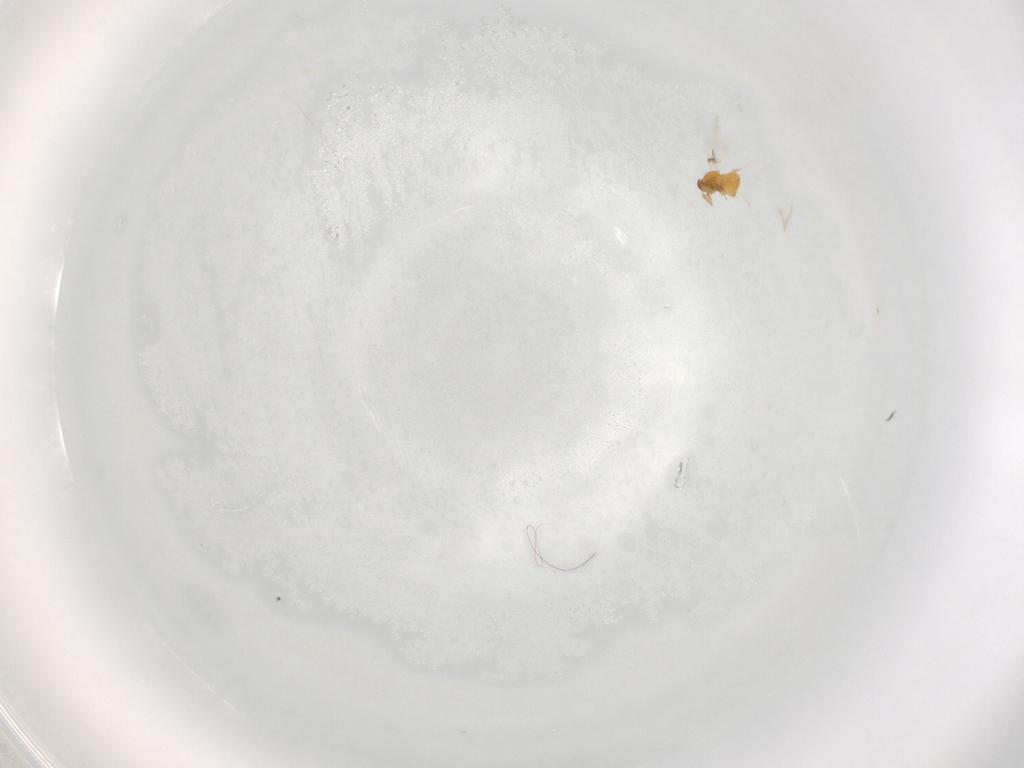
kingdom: Animalia
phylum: Arthropoda
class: Insecta
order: Hymenoptera
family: Trichogrammatidae
